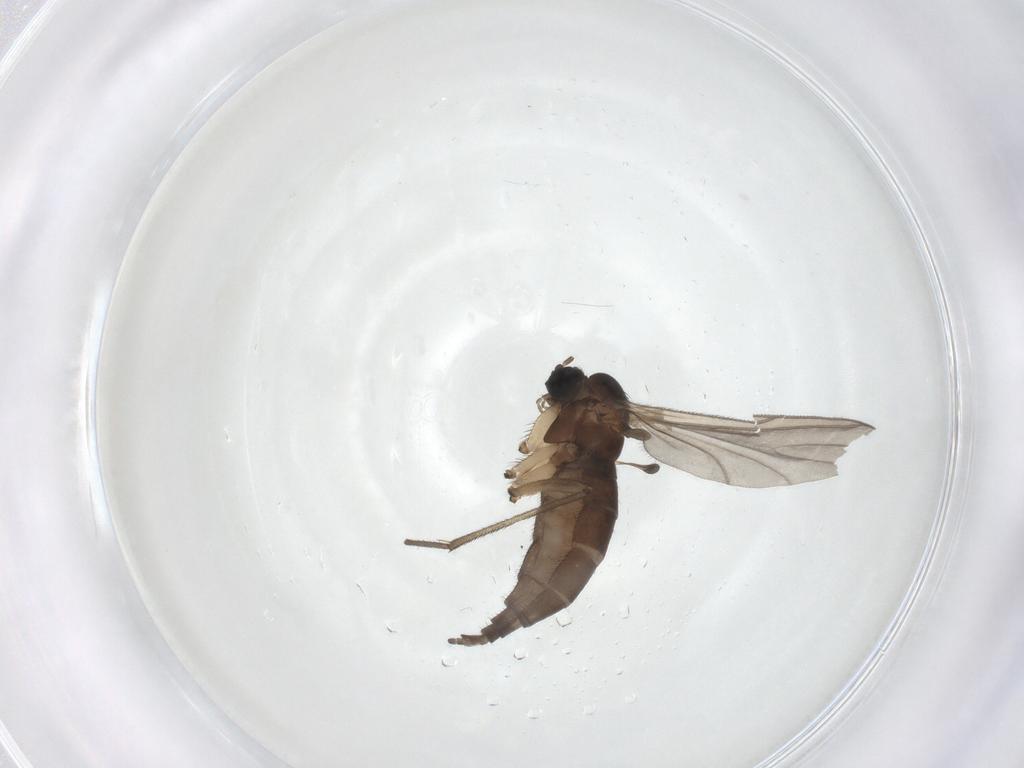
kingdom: Animalia
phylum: Arthropoda
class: Insecta
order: Diptera
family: Sciaridae
